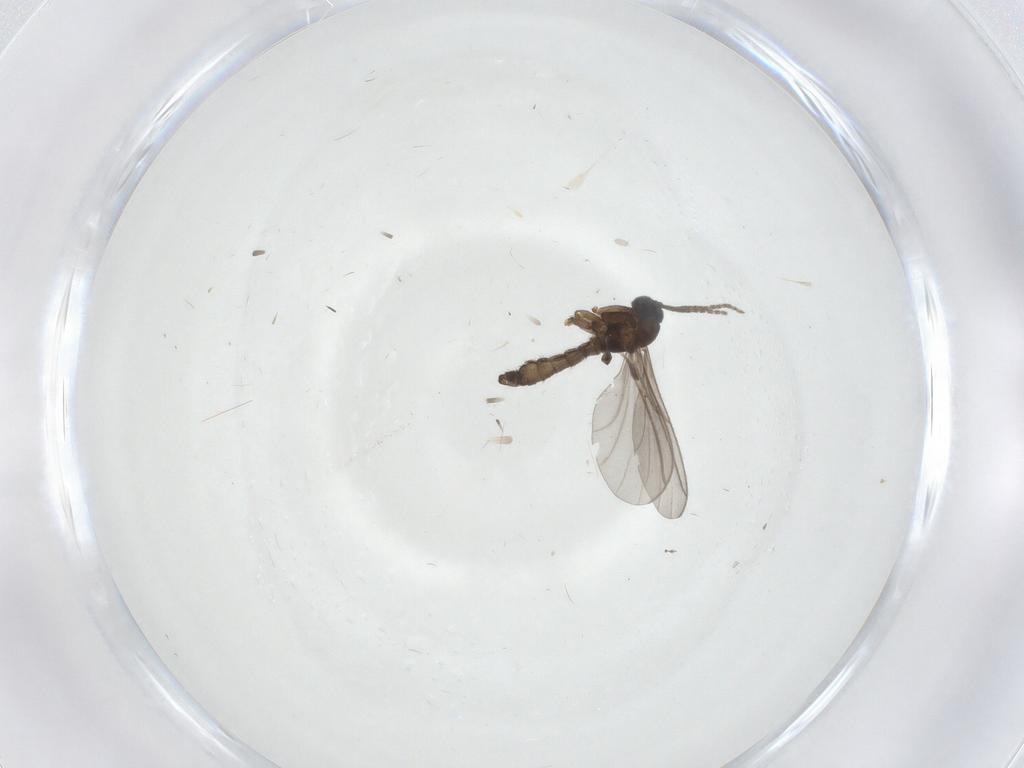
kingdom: Animalia
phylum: Arthropoda
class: Insecta
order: Diptera
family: Sciaridae
